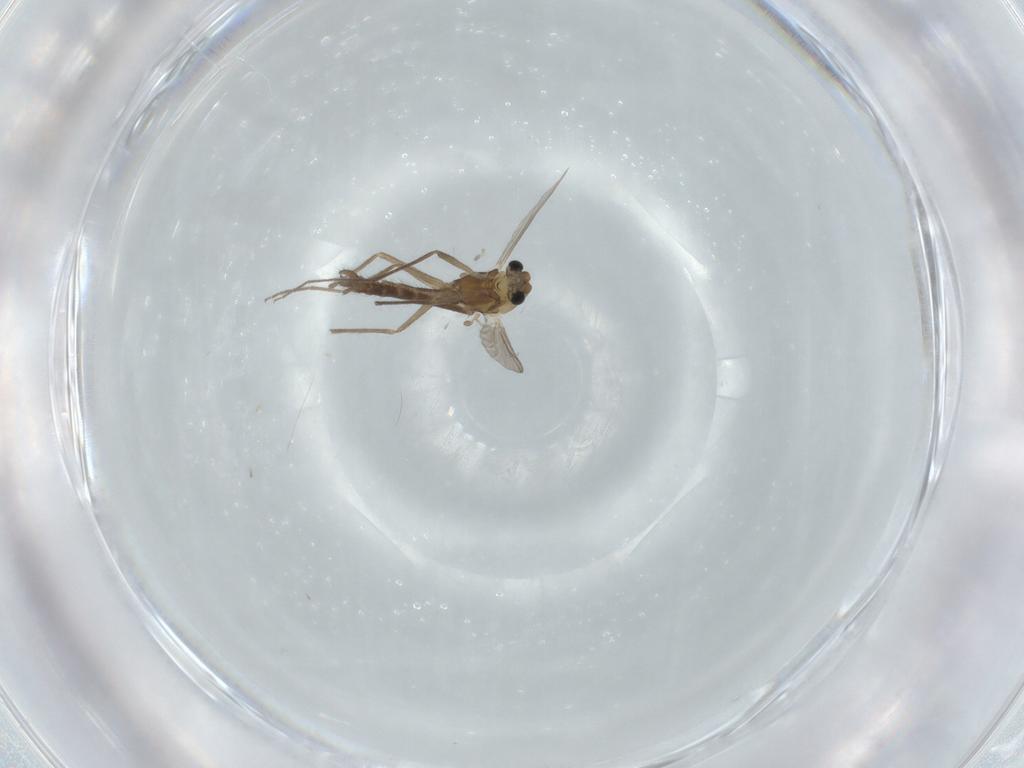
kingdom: Animalia
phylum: Arthropoda
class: Insecta
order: Diptera
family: Chironomidae
